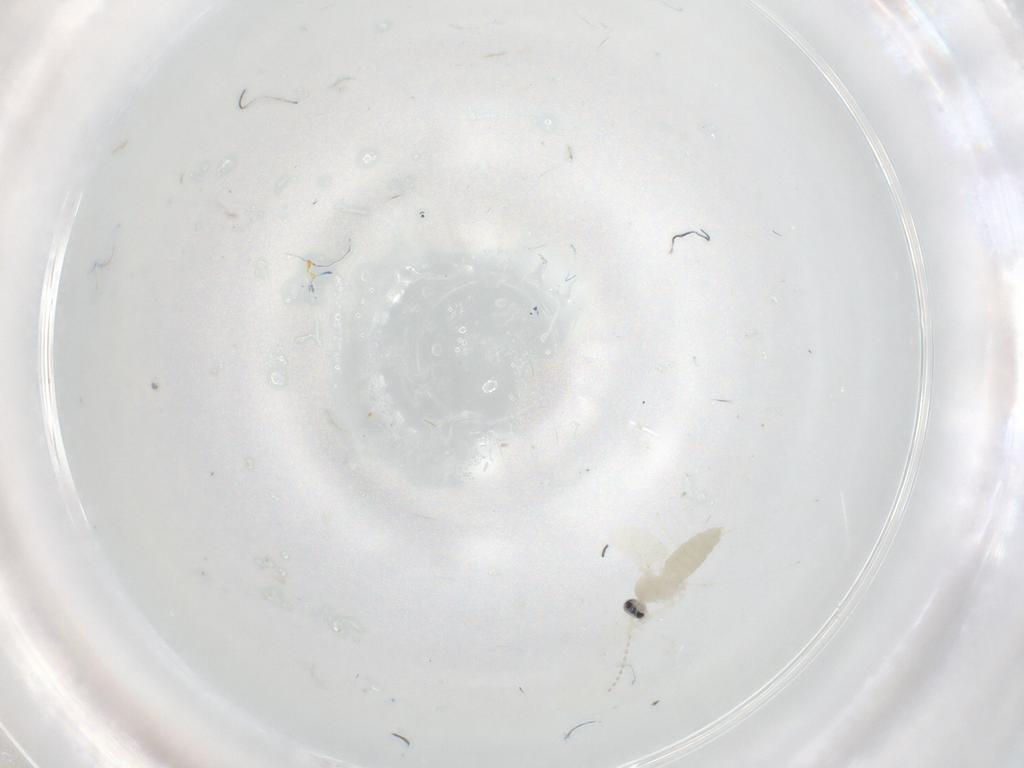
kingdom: Animalia
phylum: Arthropoda
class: Insecta
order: Diptera
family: Cecidomyiidae
